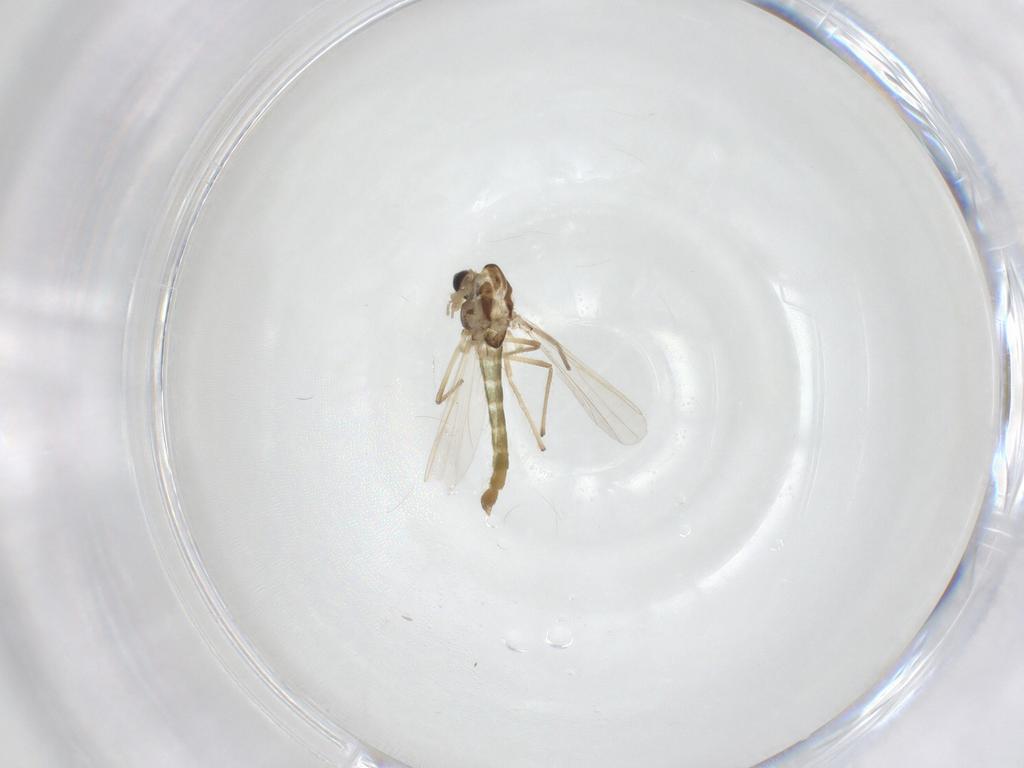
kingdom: Animalia
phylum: Arthropoda
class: Insecta
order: Diptera
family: Chironomidae
